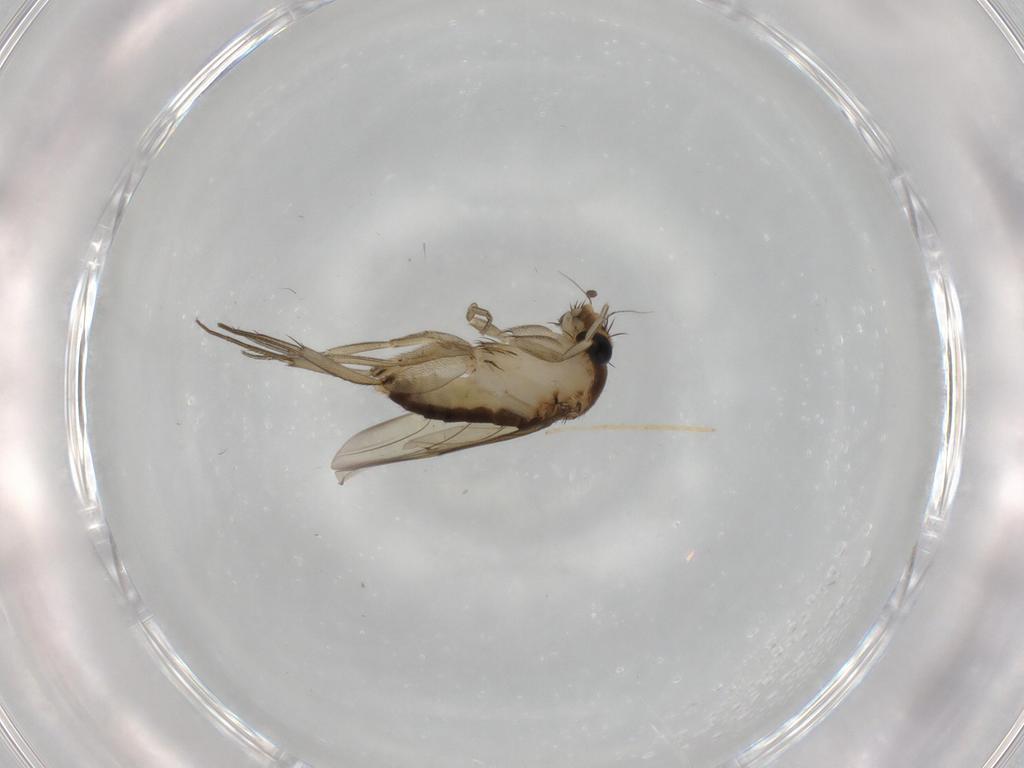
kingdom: Animalia
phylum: Arthropoda
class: Insecta
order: Diptera
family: Phoridae
